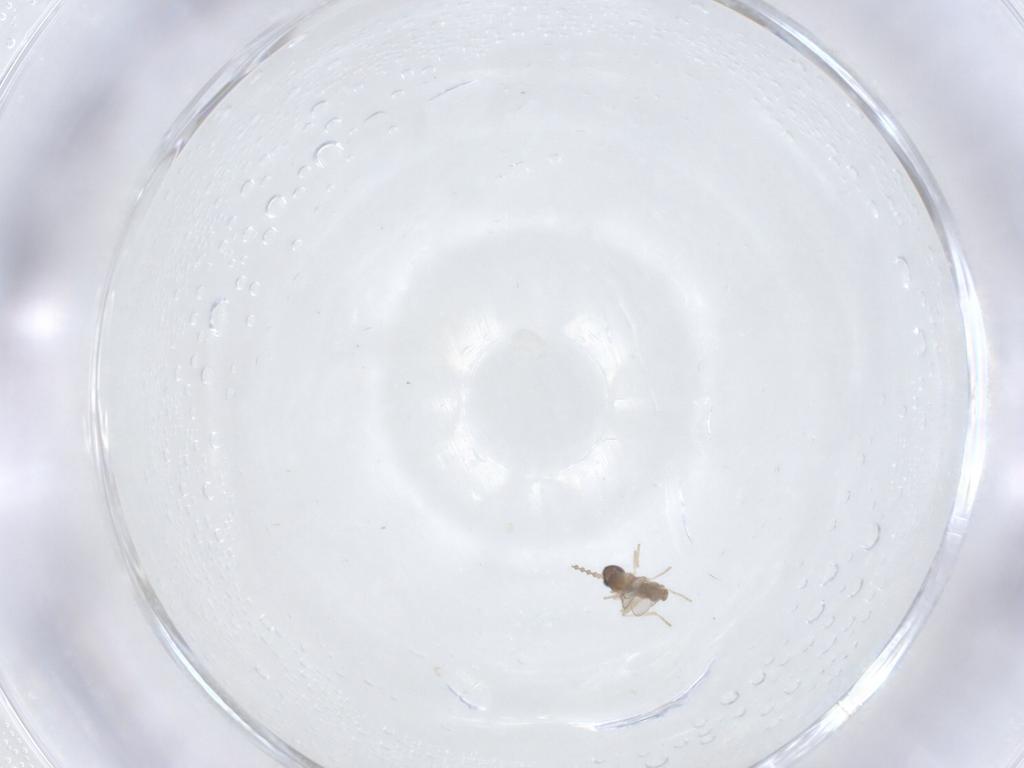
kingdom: Animalia
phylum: Arthropoda
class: Insecta
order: Diptera
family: Cecidomyiidae
